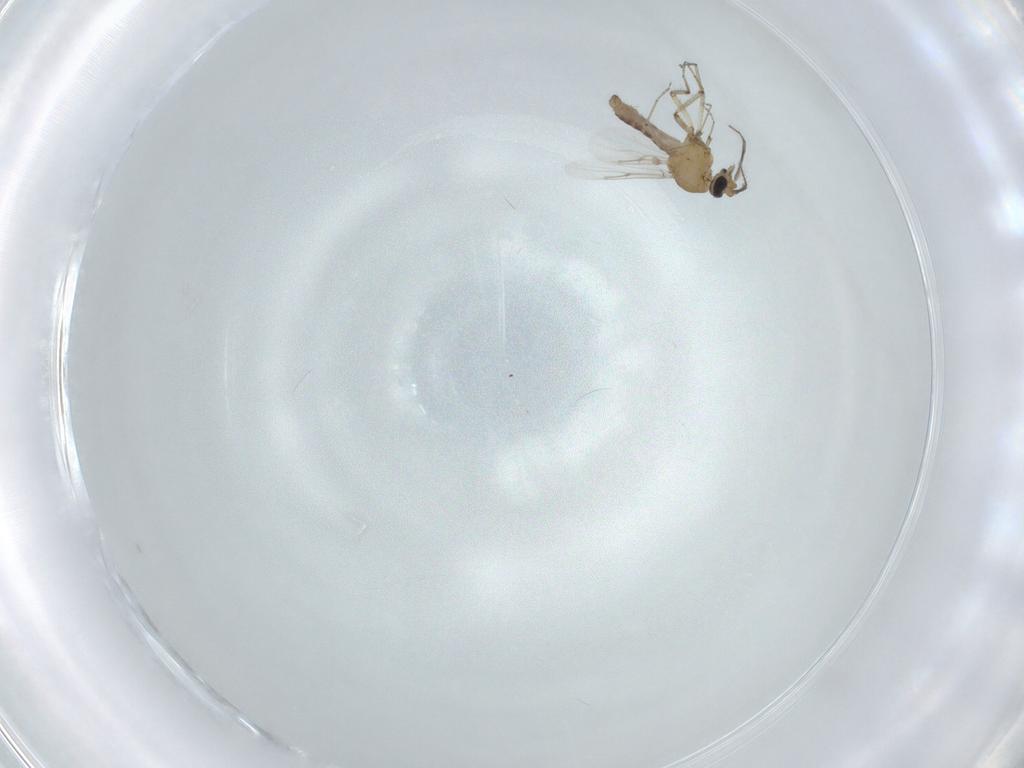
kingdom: Animalia
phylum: Arthropoda
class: Insecta
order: Diptera
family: Ceratopogonidae
